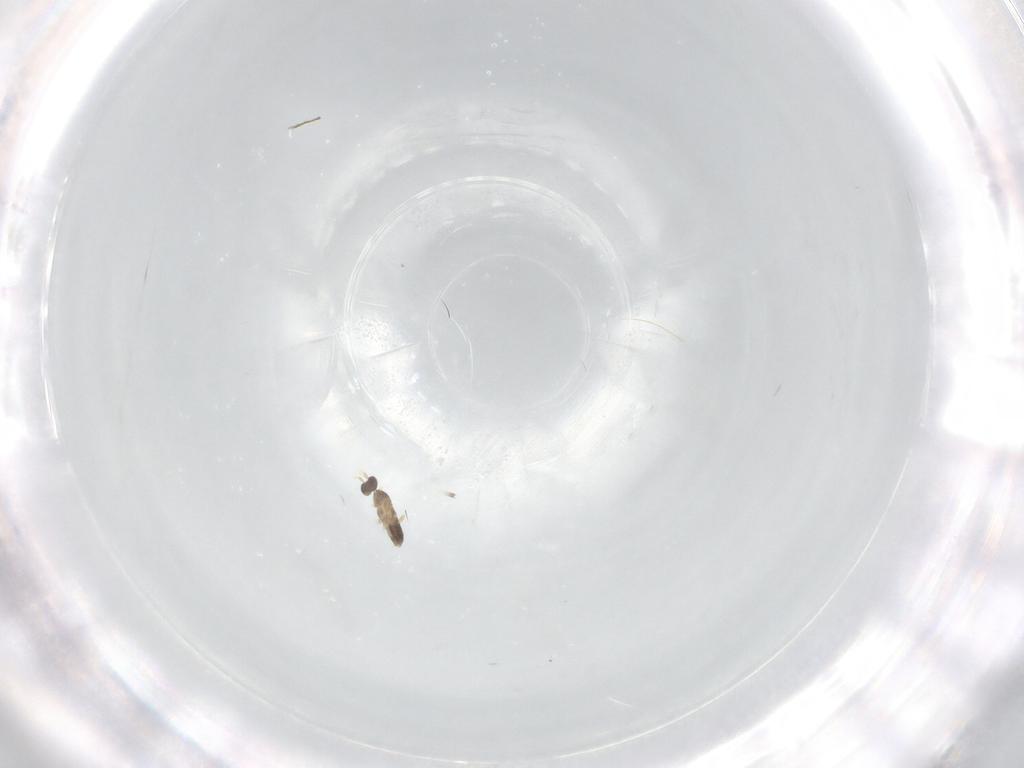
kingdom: Animalia
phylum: Arthropoda
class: Insecta
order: Hymenoptera
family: Mymaridae
